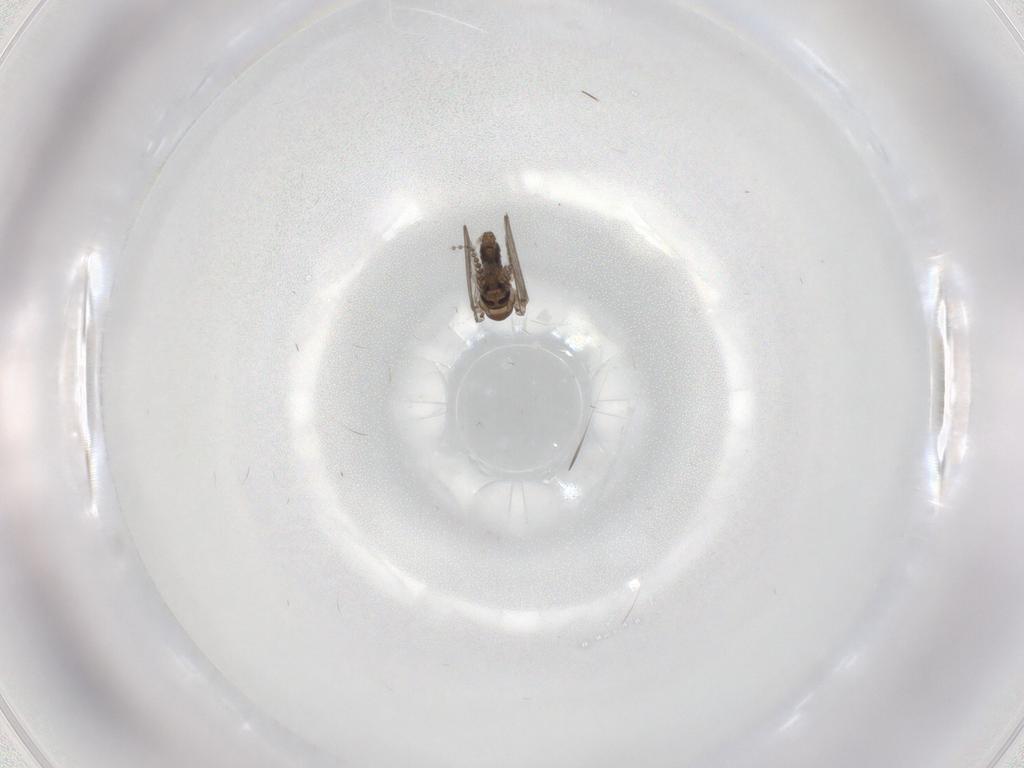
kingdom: Animalia
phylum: Arthropoda
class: Insecta
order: Diptera
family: Psychodidae
